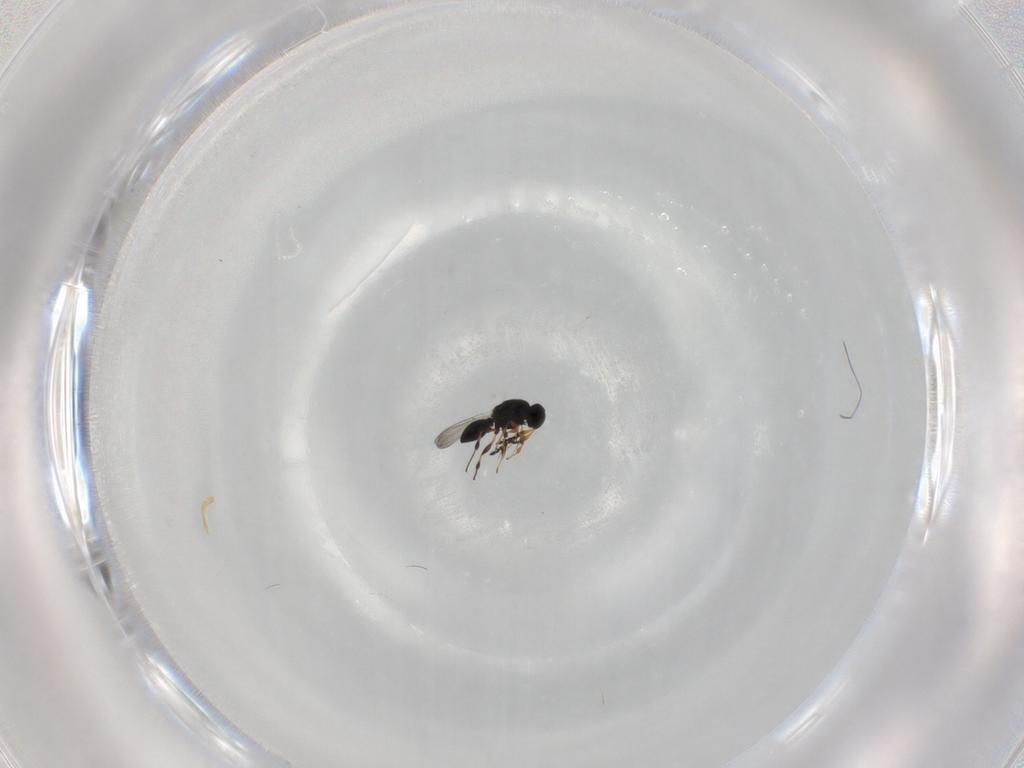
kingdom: Animalia
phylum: Arthropoda
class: Insecta
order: Hymenoptera
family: Platygastridae
